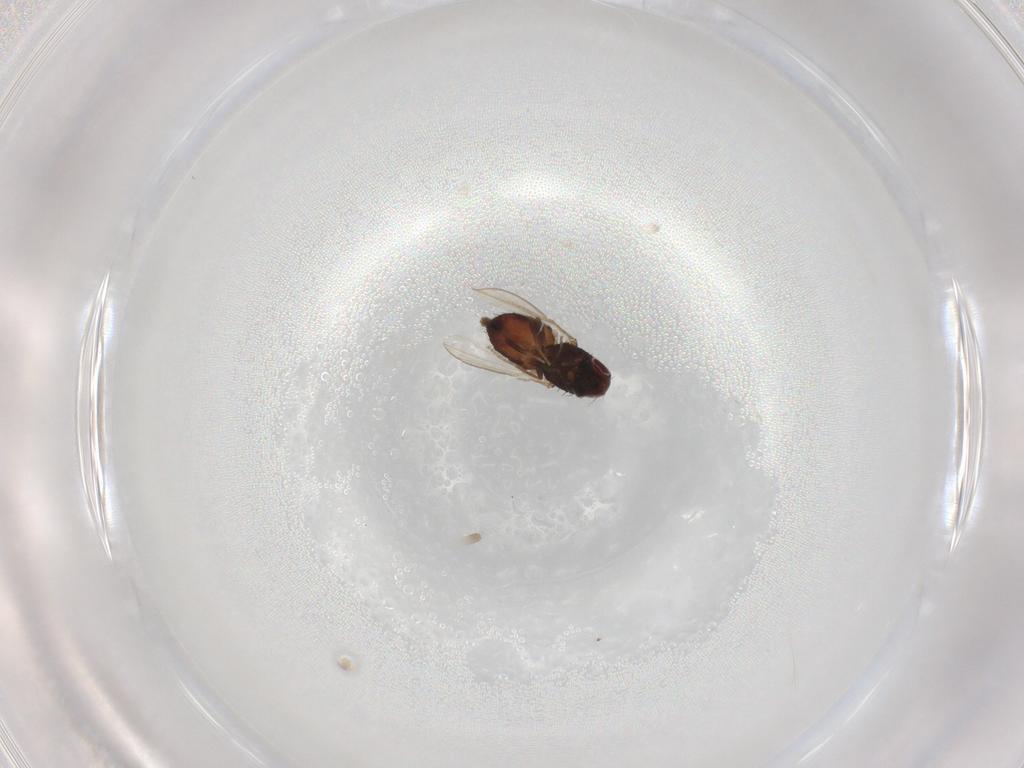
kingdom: Animalia
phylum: Arthropoda
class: Insecta
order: Diptera
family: Carnidae
